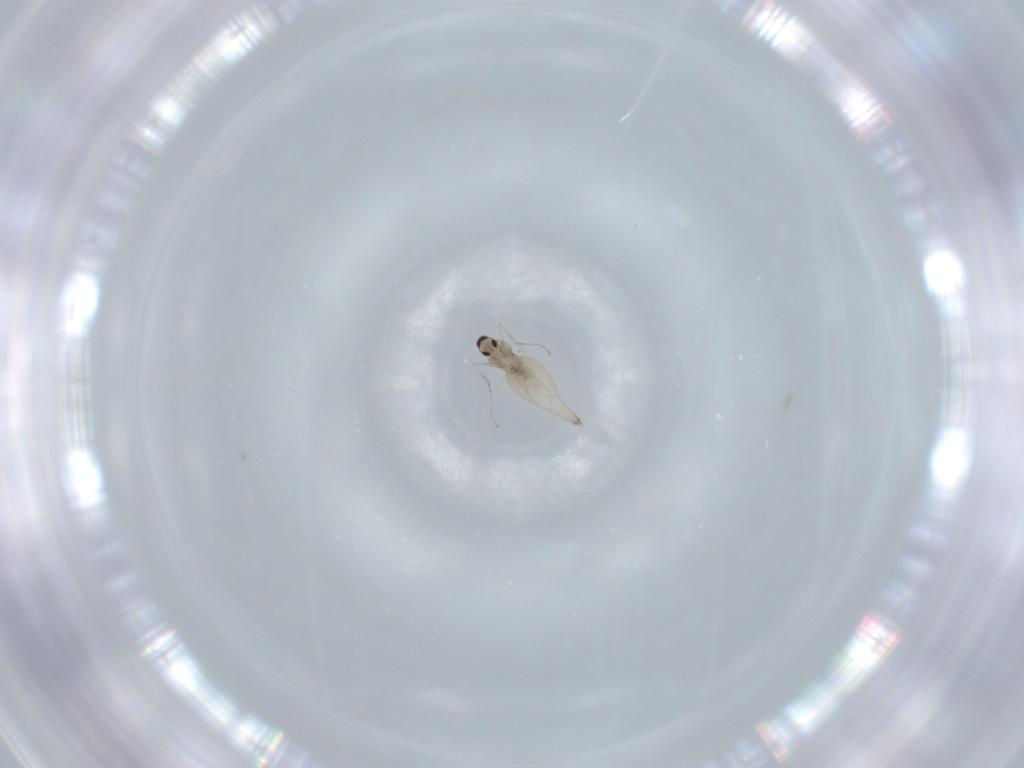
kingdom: Animalia
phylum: Arthropoda
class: Insecta
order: Diptera
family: Cecidomyiidae
